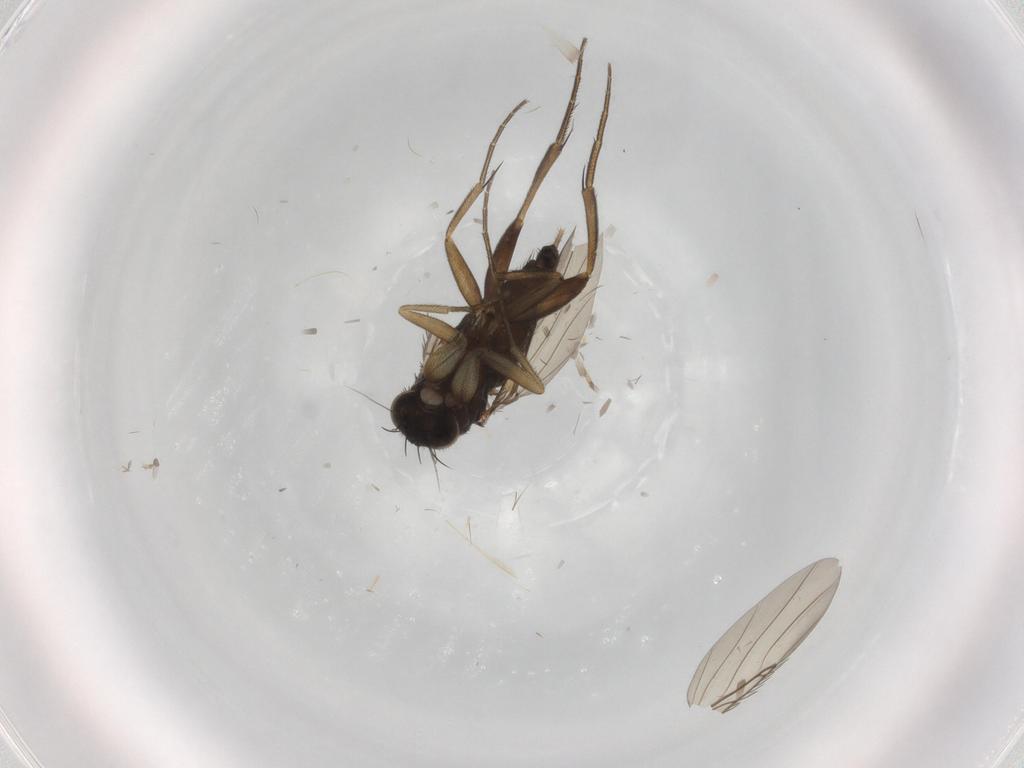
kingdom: Animalia
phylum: Arthropoda
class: Insecta
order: Diptera
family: Phoridae
